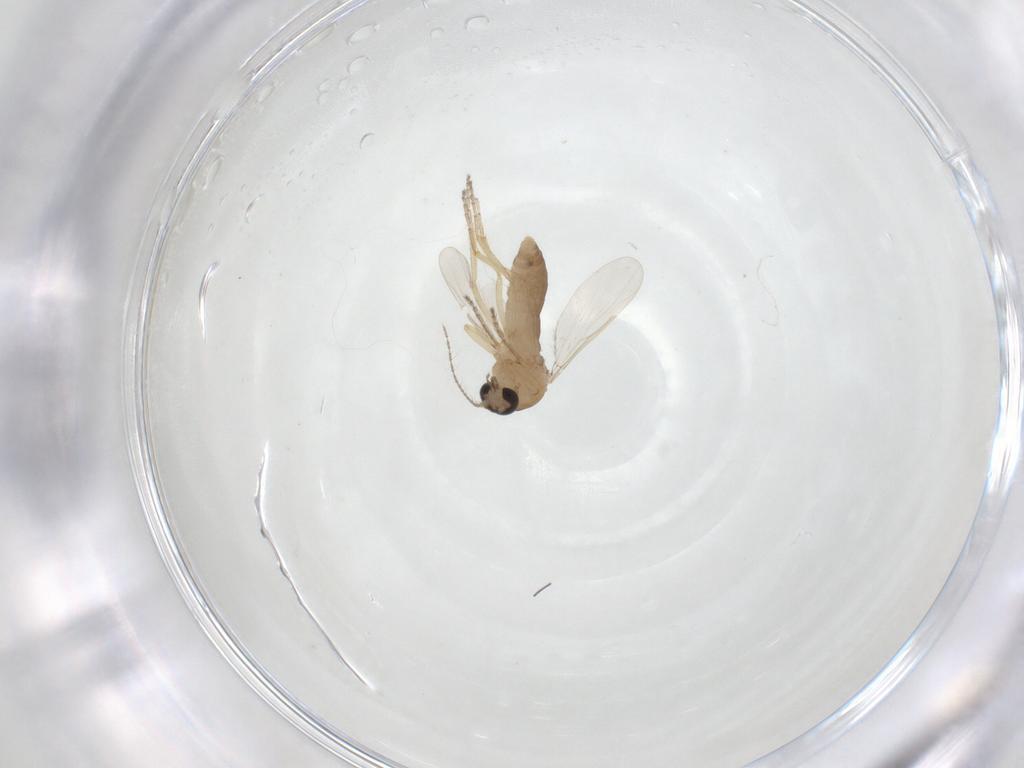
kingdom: Animalia
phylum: Arthropoda
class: Insecta
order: Diptera
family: Ceratopogonidae
